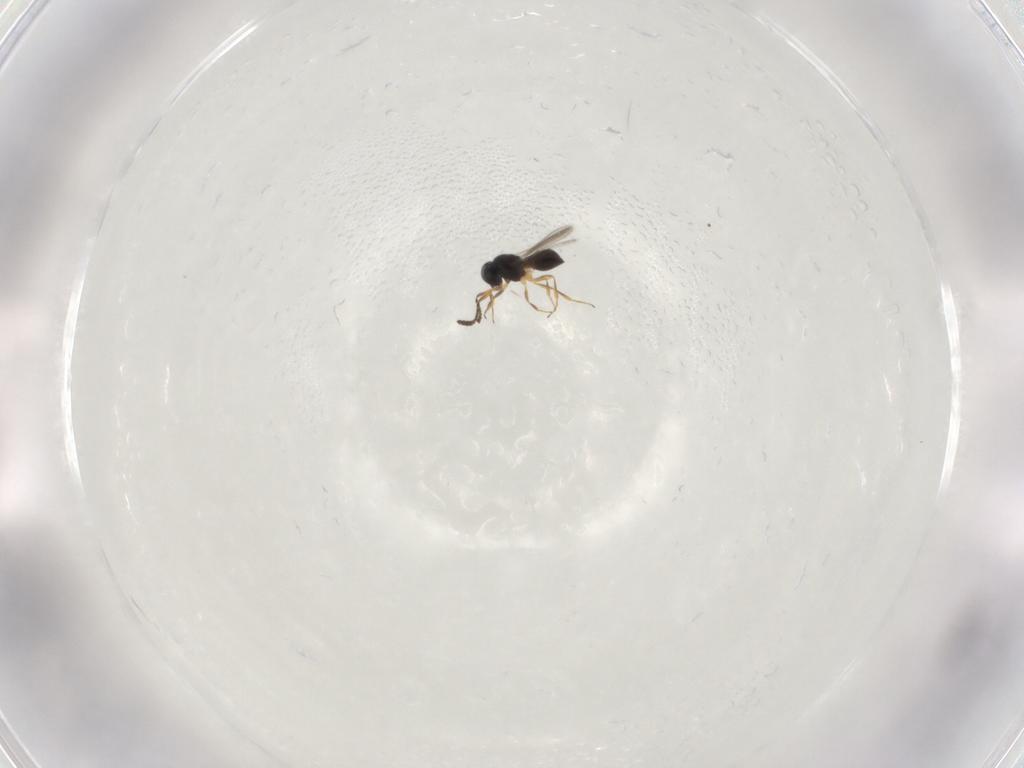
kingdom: Animalia
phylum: Arthropoda
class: Insecta
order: Hymenoptera
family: Scelionidae
